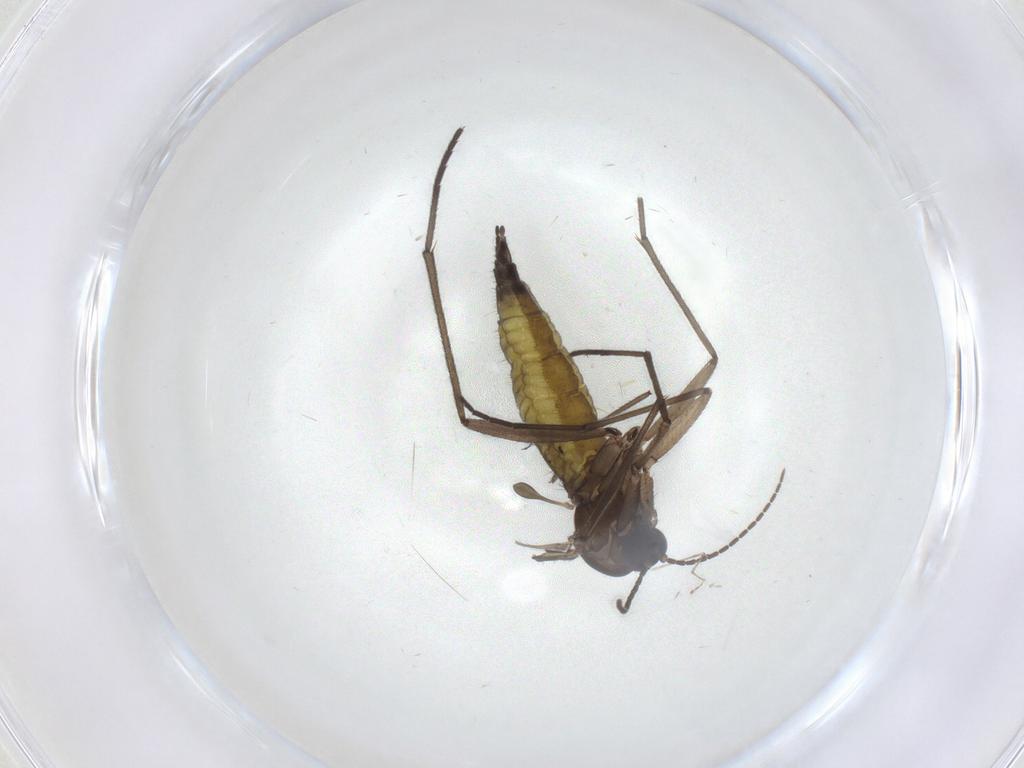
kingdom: Animalia
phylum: Arthropoda
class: Insecta
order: Diptera
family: Sciaridae
